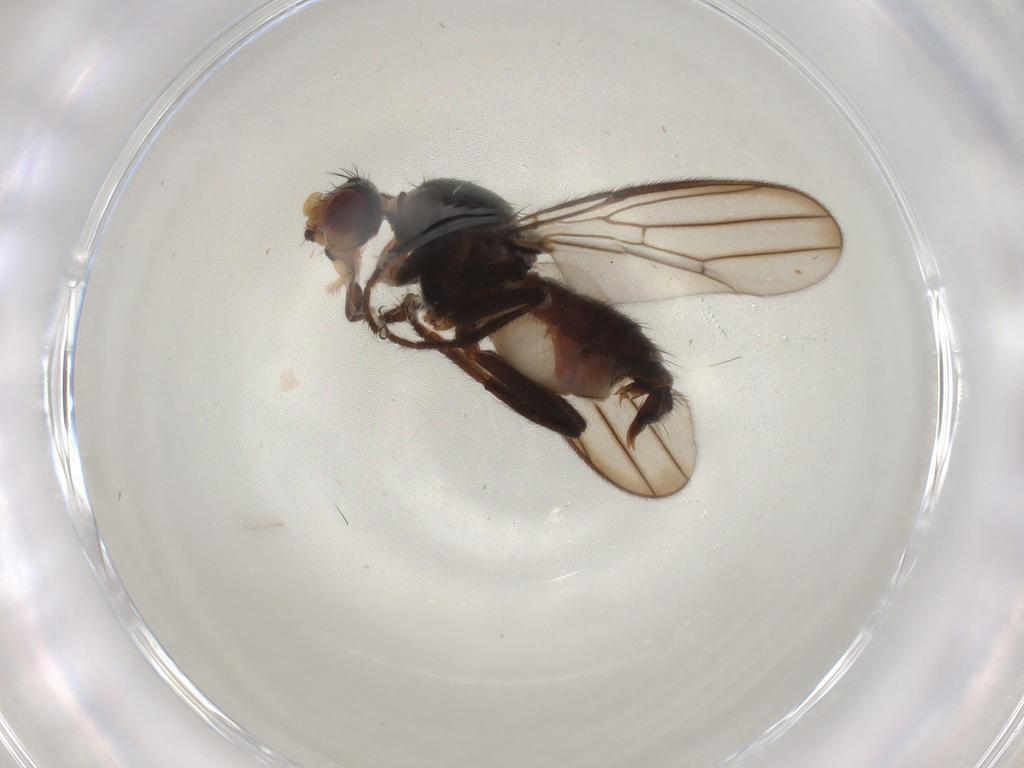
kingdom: Animalia
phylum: Arthropoda
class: Insecta
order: Diptera
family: Chloropidae
